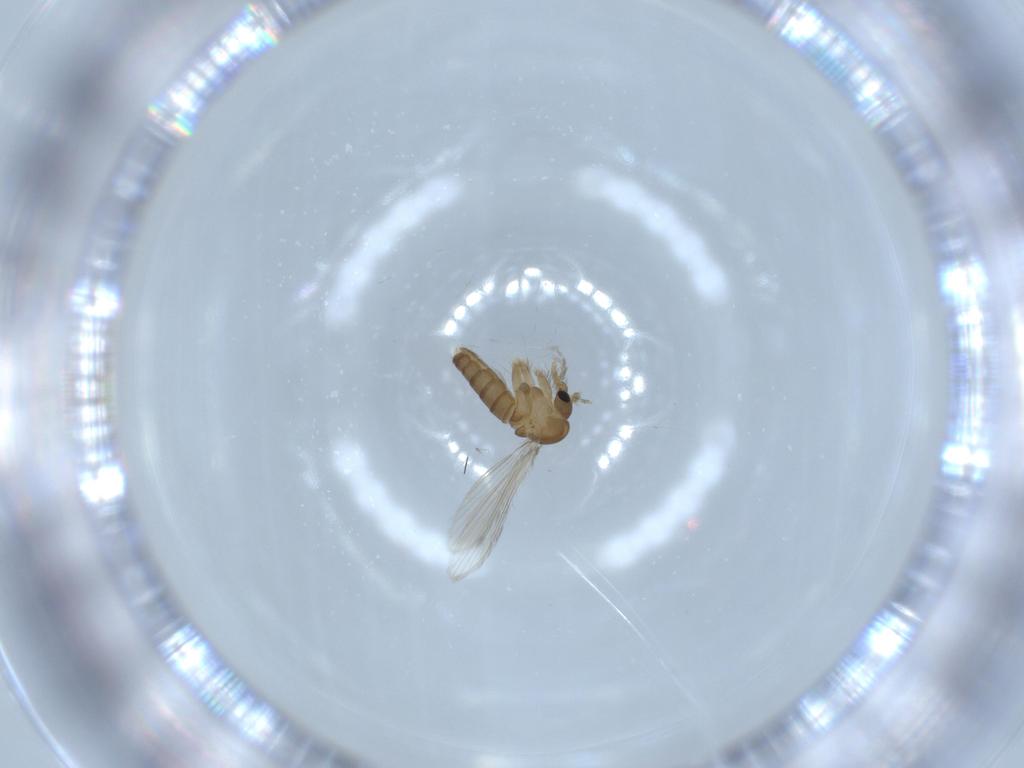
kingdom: Animalia
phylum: Arthropoda
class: Insecta
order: Diptera
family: Psychodidae
